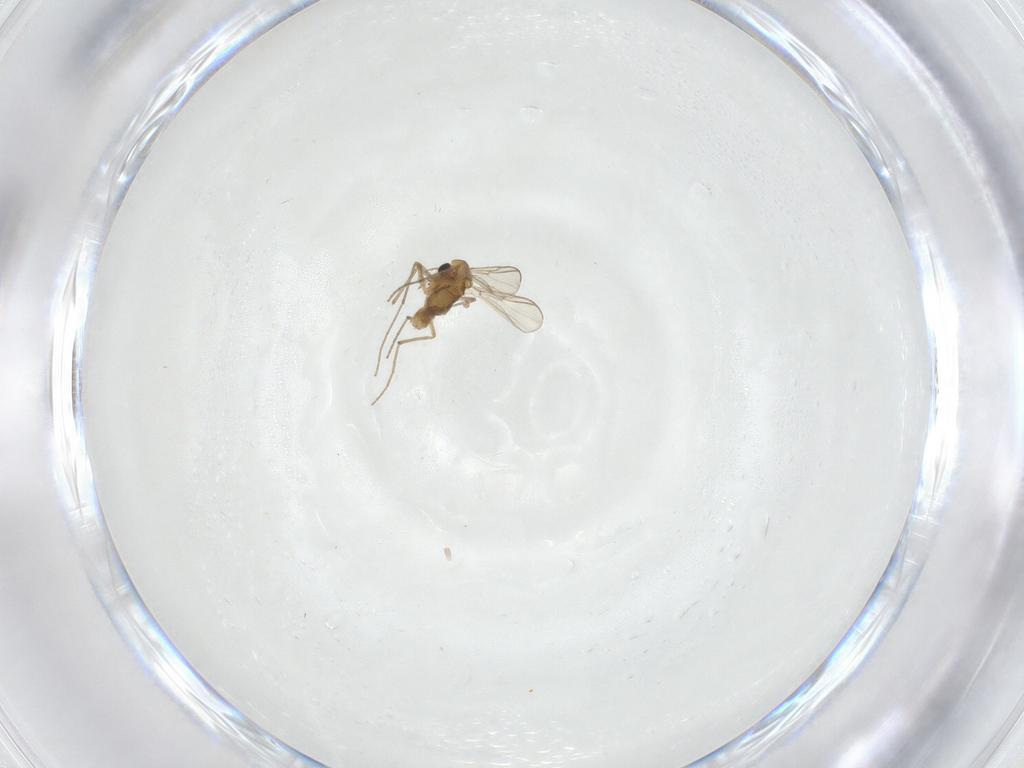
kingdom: Animalia
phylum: Arthropoda
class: Insecta
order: Diptera
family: Chironomidae
